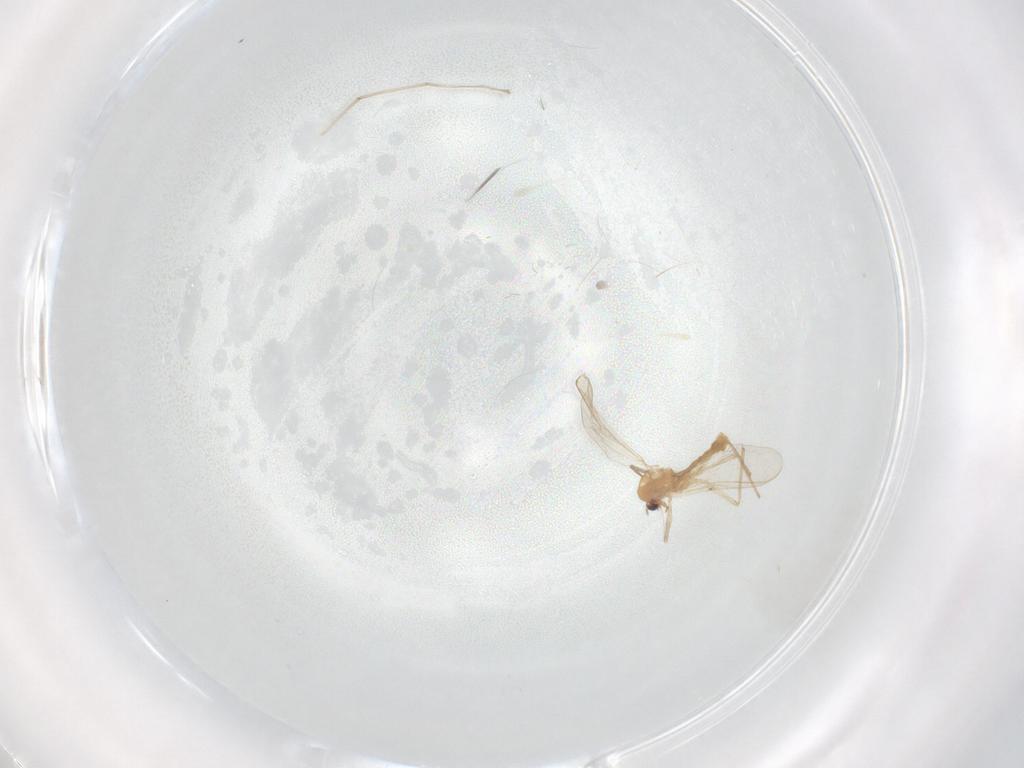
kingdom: Animalia
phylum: Arthropoda
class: Insecta
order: Diptera
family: Chironomidae
